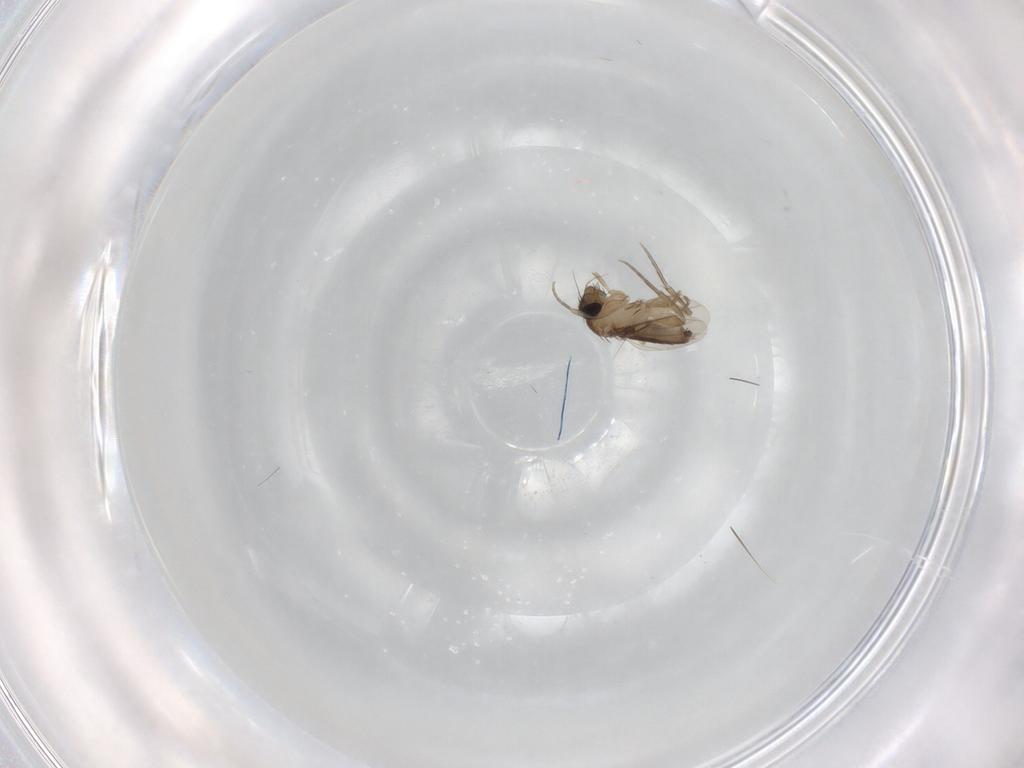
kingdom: Animalia
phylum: Arthropoda
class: Insecta
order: Diptera
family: Phoridae
